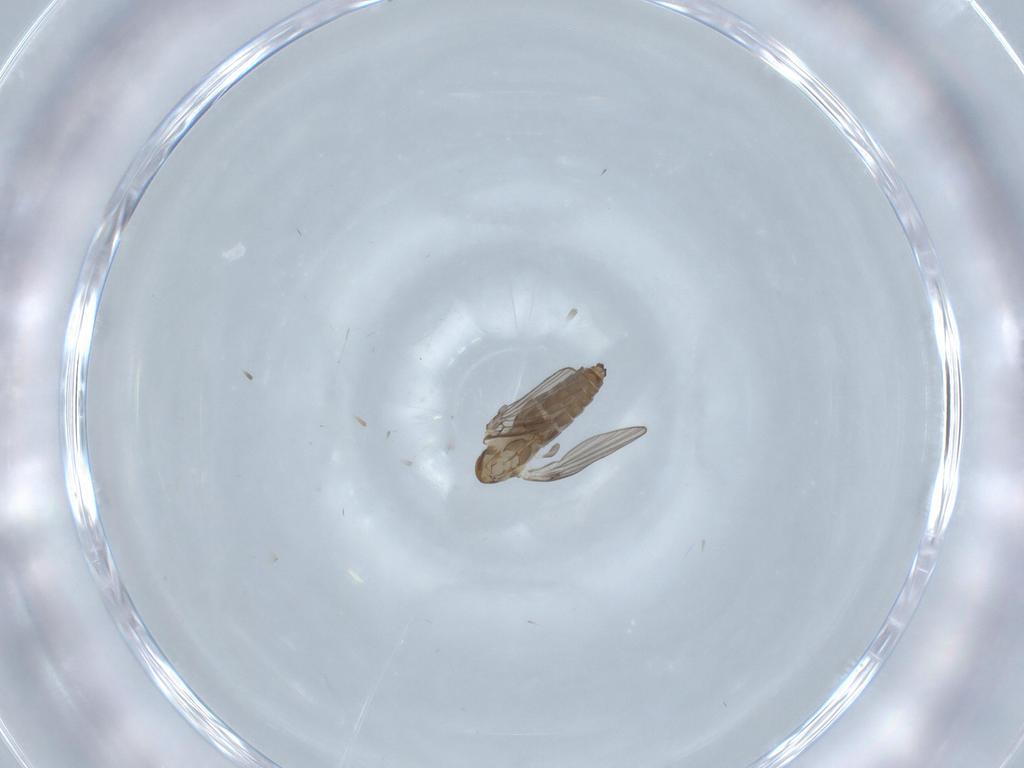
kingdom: Animalia
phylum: Arthropoda
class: Insecta
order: Diptera
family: Psychodidae
